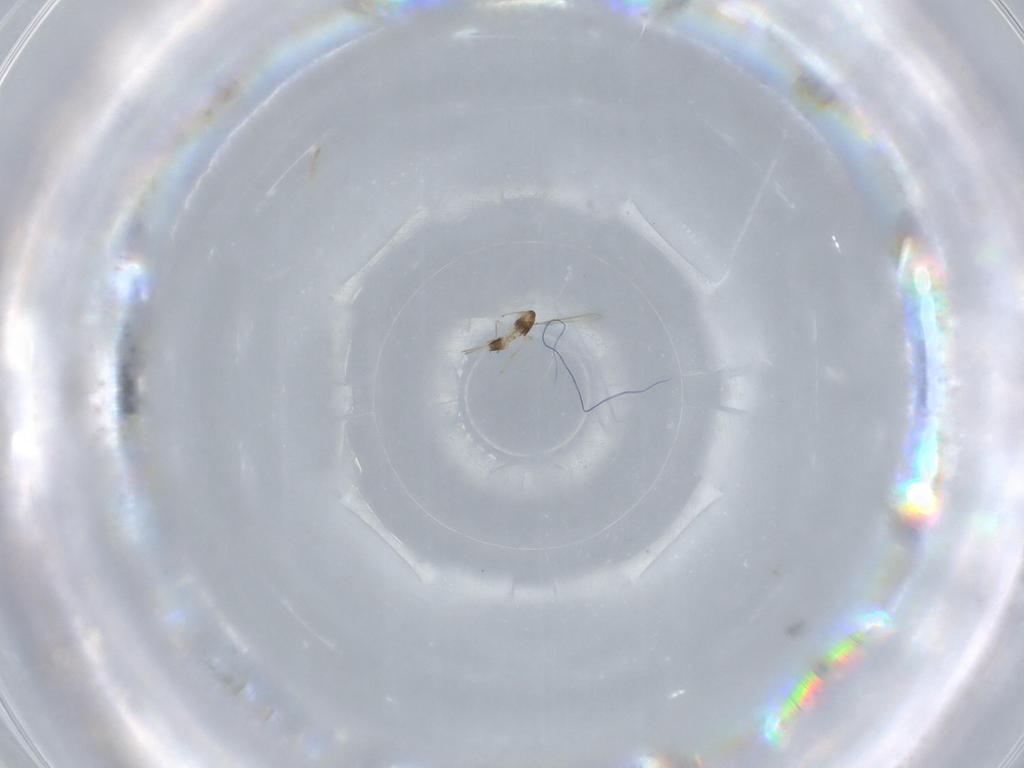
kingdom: Animalia
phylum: Arthropoda
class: Insecta
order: Hymenoptera
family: Mymaridae
